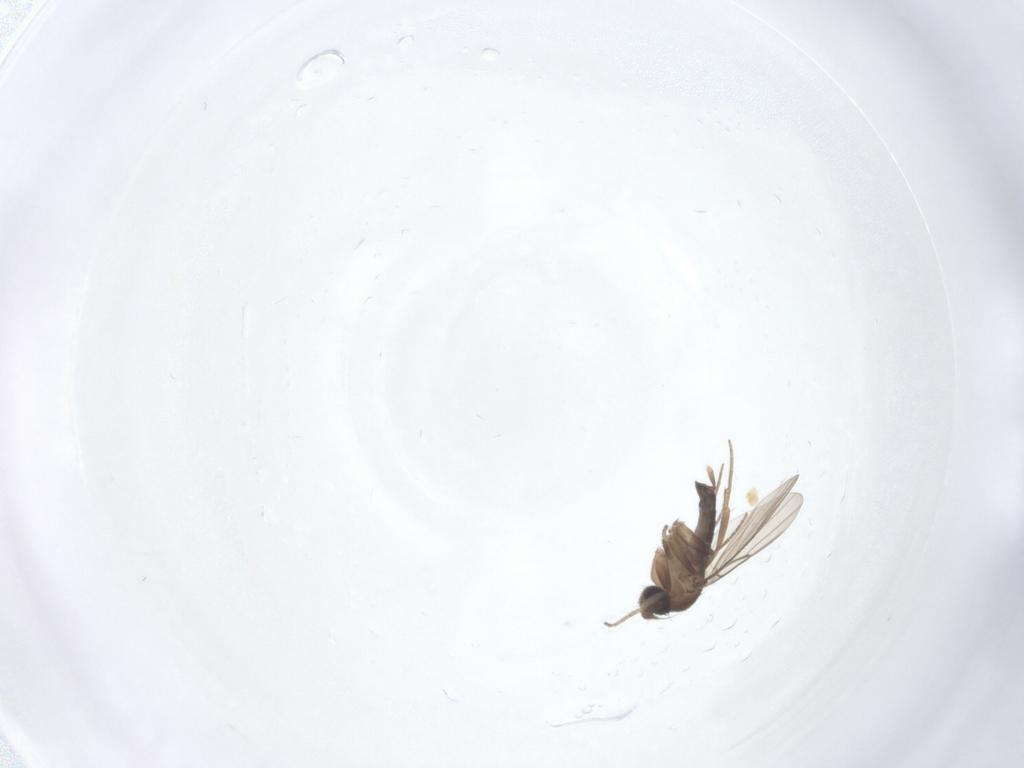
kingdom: Animalia
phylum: Arthropoda
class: Insecta
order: Diptera
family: Phoridae
